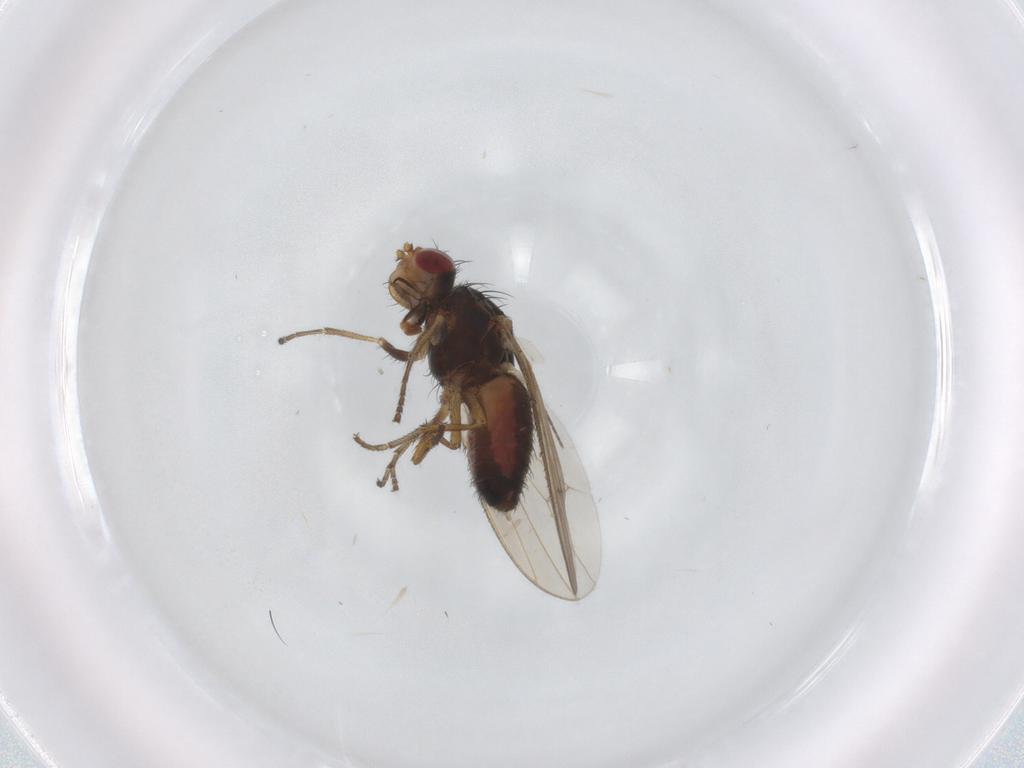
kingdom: Animalia
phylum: Arthropoda
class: Insecta
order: Diptera
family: Heleomyzidae
